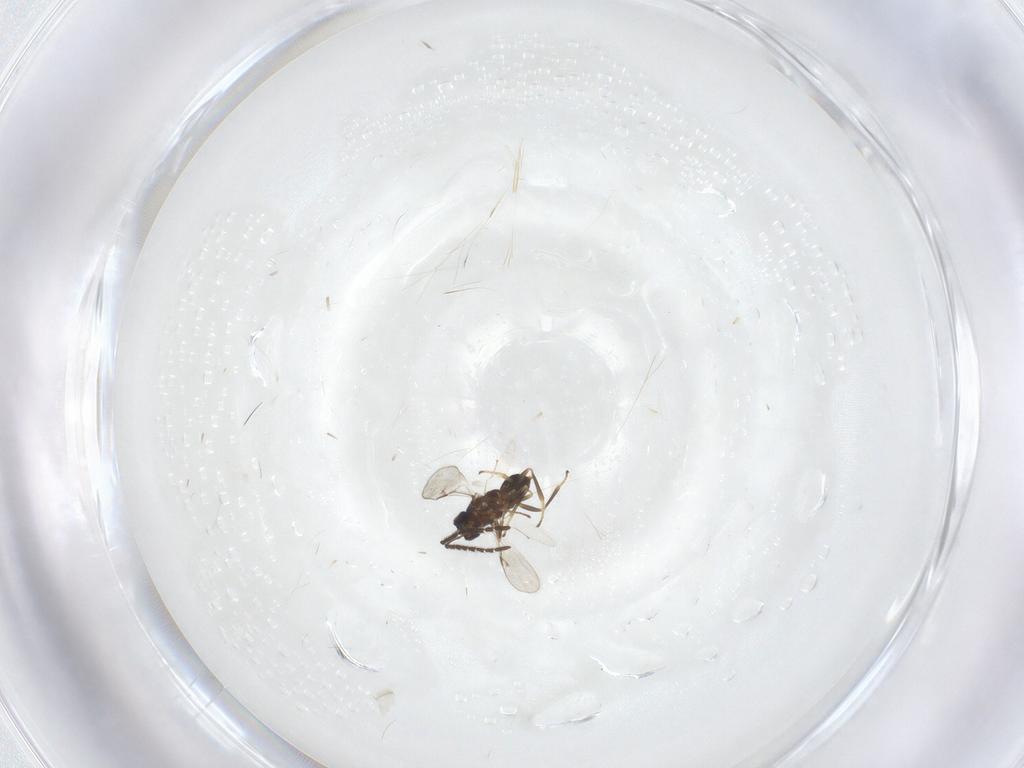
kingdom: Animalia
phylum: Arthropoda
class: Insecta
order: Hymenoptera
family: Encyrtidae
